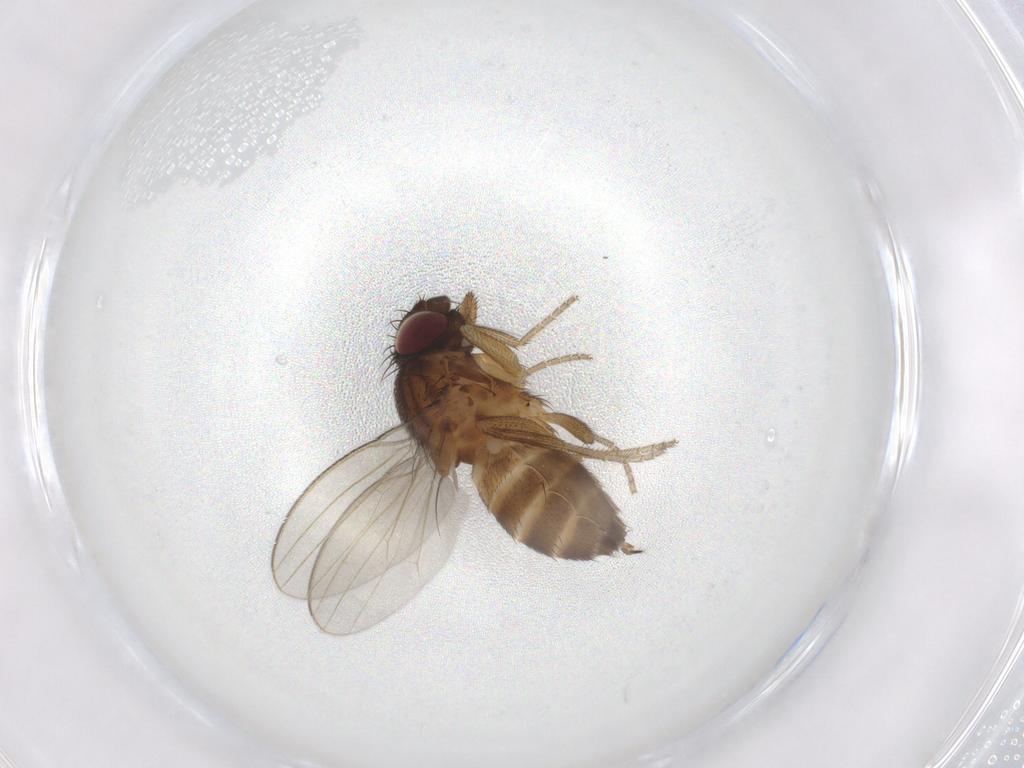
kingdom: Animalia
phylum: Arthropoda
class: Insecta
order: Diptera
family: Milichiidae
